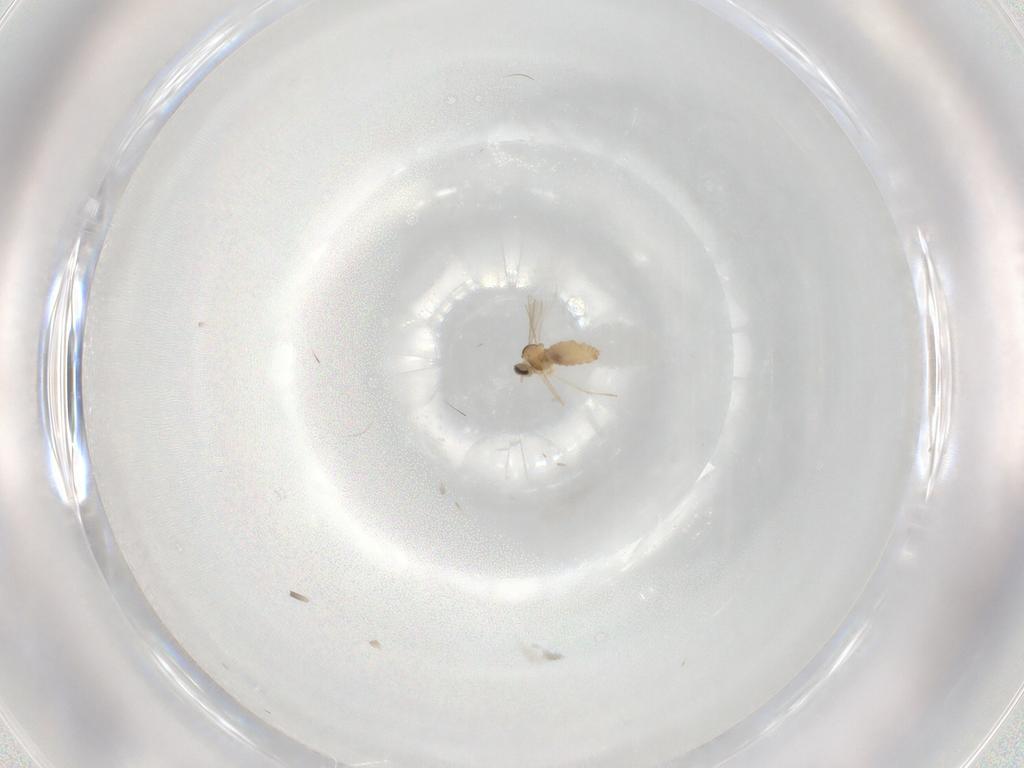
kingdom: Animalia
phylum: Arthropoda
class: Insecta
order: Diptera
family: Cecidomyiidae
